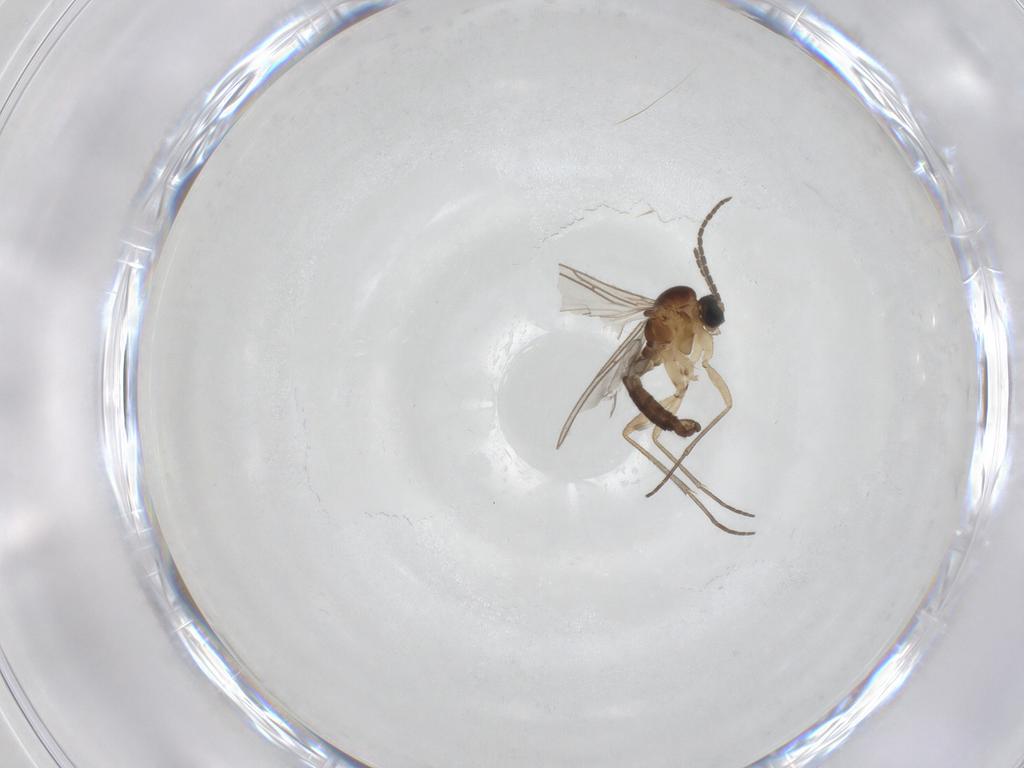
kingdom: Animalia
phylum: Arthropoda
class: Insecta
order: Diptera
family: Sciaridae
